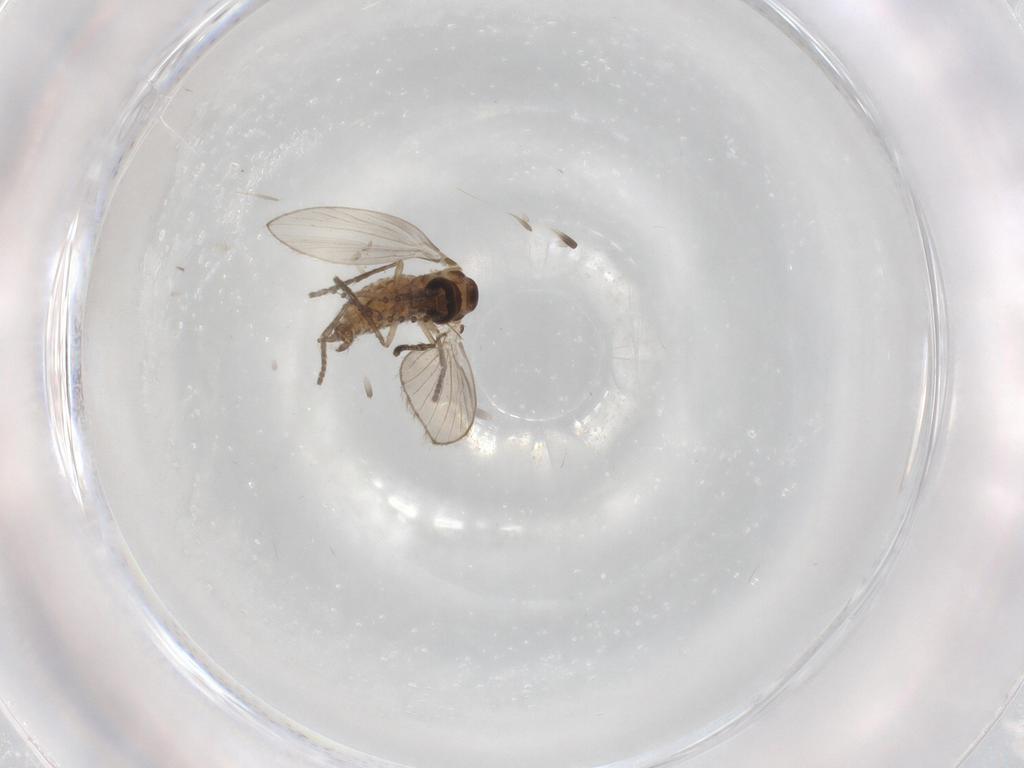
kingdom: Animalia
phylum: Arthropoda
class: Insecta
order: Diptera
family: Psychodidae
